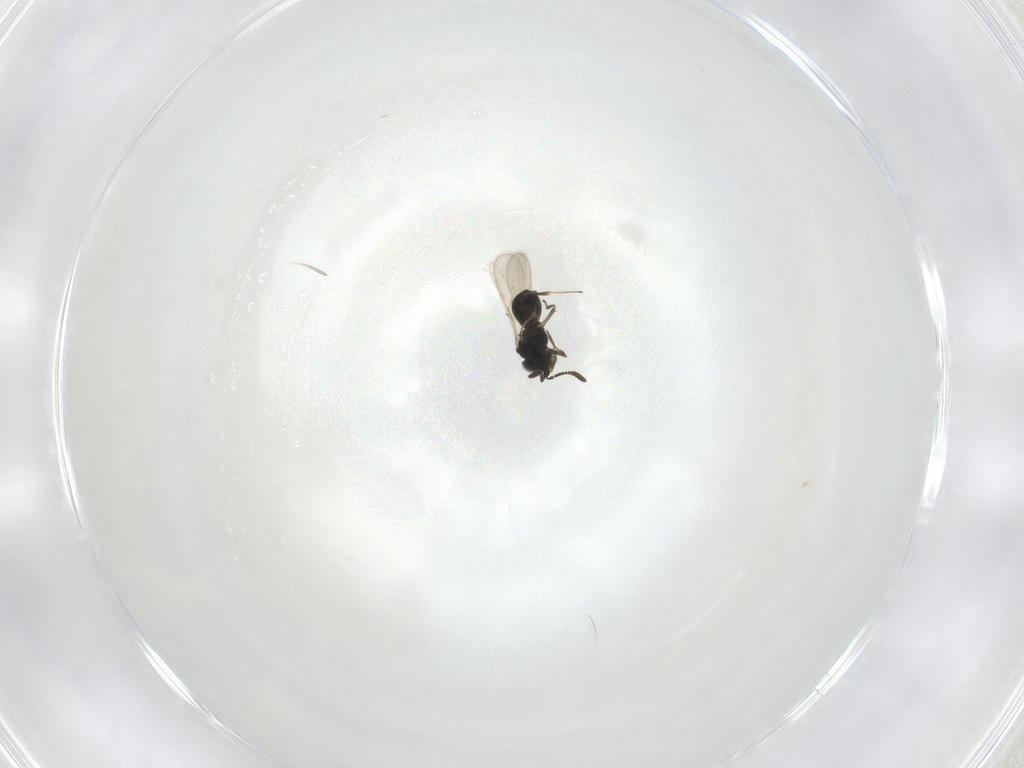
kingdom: Animalia
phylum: Arthropoda
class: Insecta
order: Hymenoptera
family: Scelionidae
